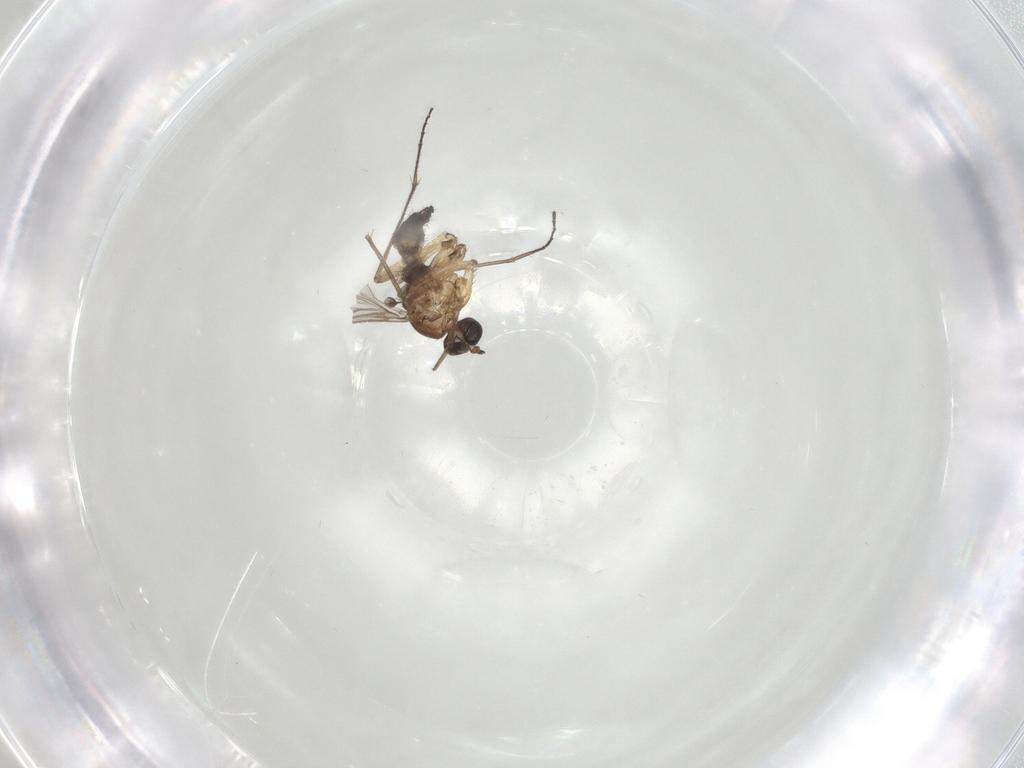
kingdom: Animalia
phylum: Arthropoda
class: Insecta
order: Diptera
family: Sciaridae
